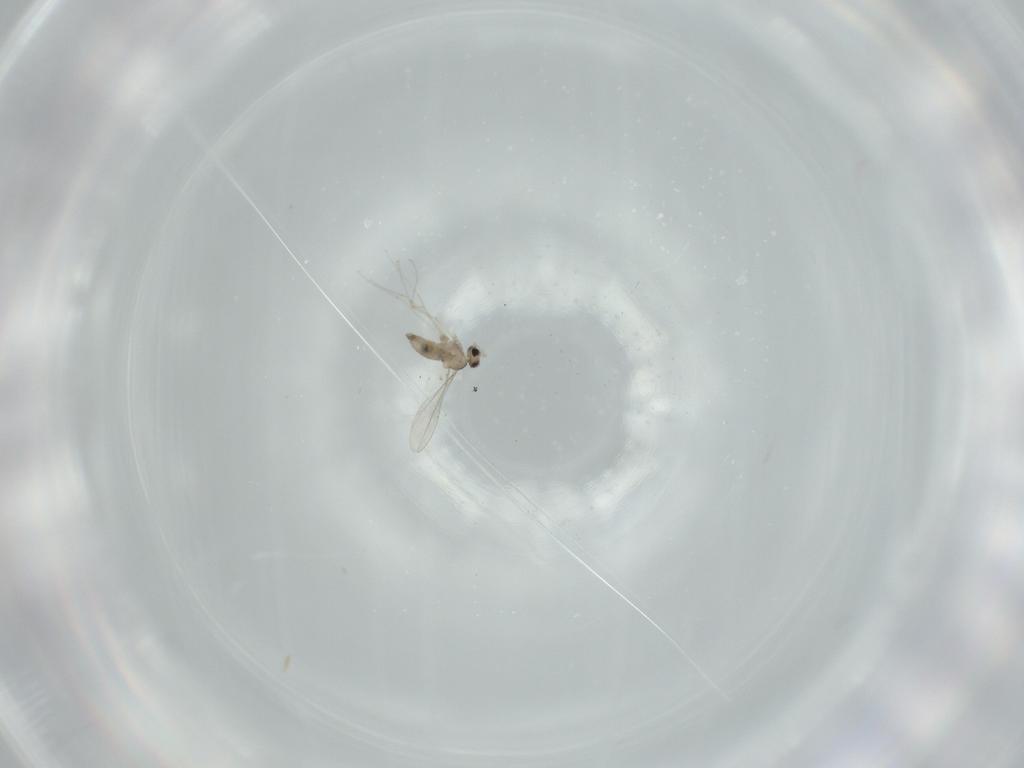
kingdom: Animalia
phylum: Arthropoda
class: Insecta
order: Diptera
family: Cecidomyiidae
